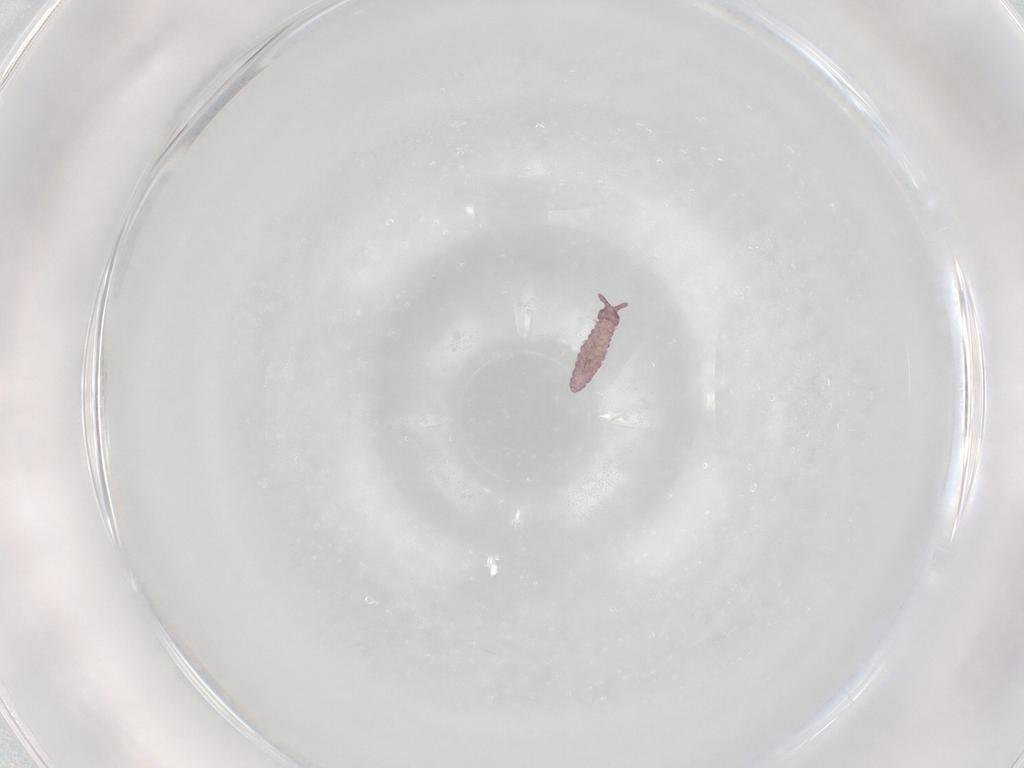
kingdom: Animalia
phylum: Arthropoda
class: Collembola
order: Poduromorpha
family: Hypogastruridae
